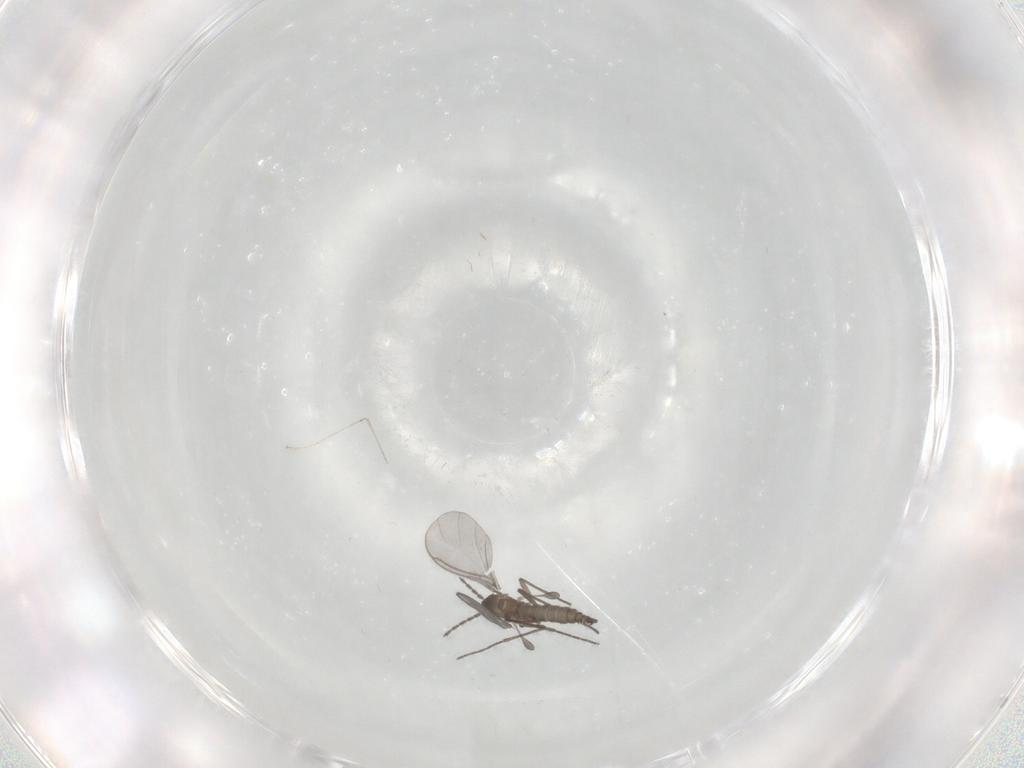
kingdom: Animalia
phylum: Arthropoda
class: Insecta
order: Diptera
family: Sciaridae
